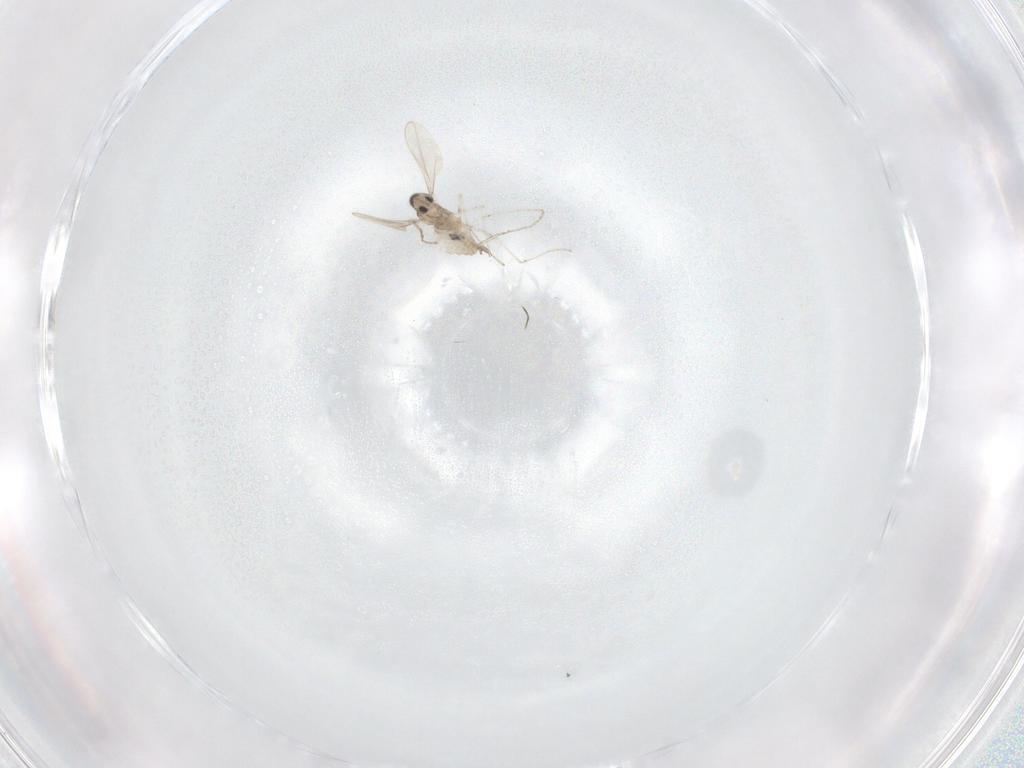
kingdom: Animalia
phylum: Arthropoda
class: Insecta
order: Diptera
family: Cecidomyiidae
